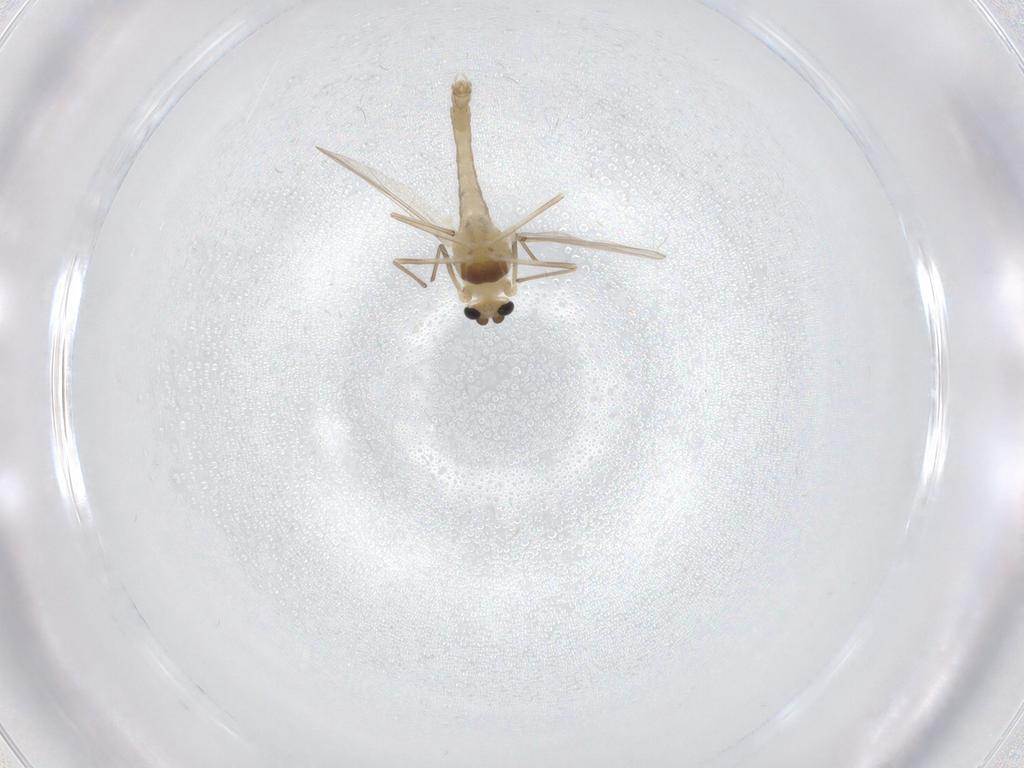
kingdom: Animalia
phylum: Arthropoda
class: Insecta
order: Diptera
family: Chironomidae
